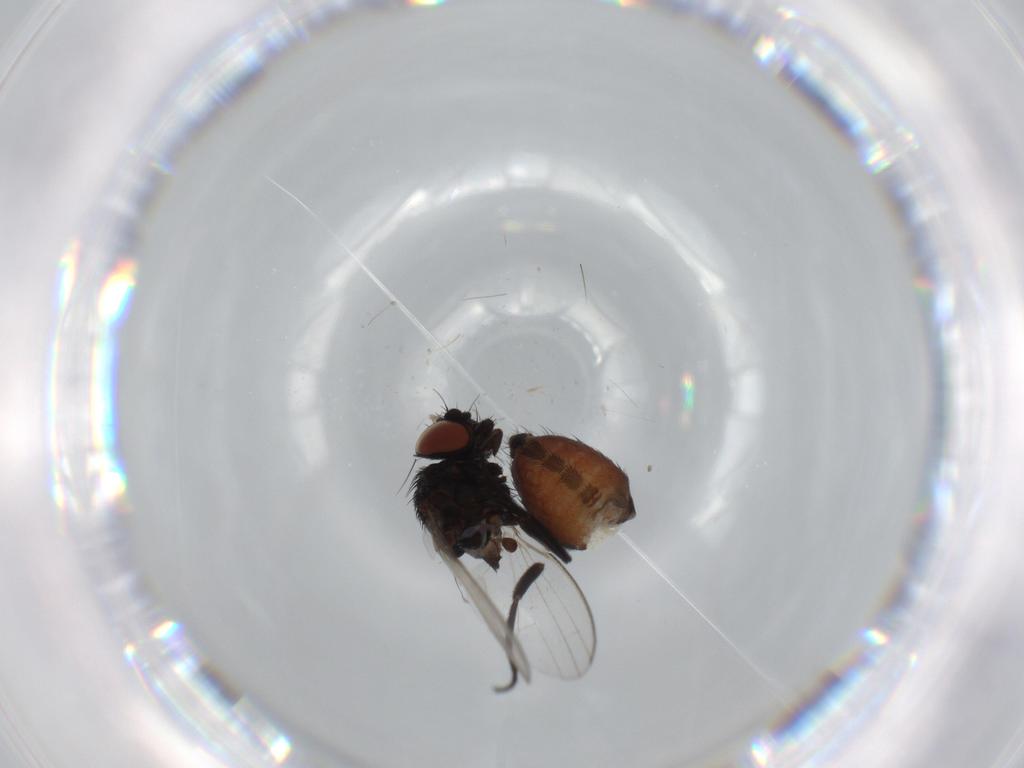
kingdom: Animalia
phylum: Arthropoda
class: Insecta
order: Diptera
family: Milichiidae
